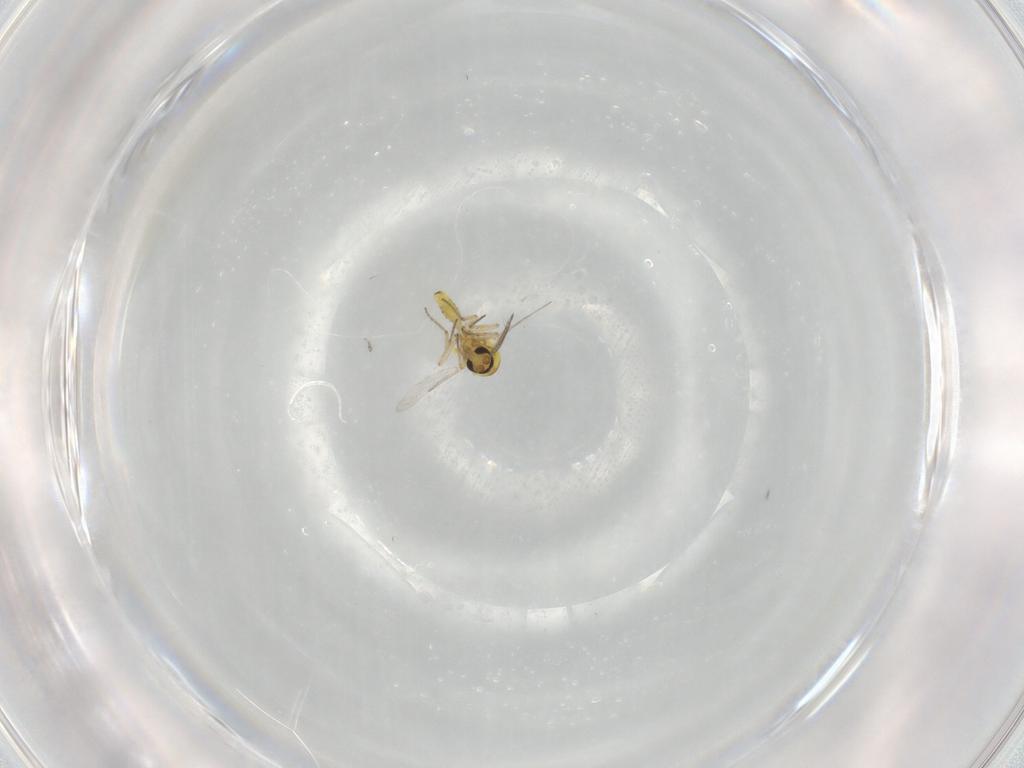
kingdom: Animalia
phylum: Arthropoda
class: Insecta
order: Diptera
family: Ceratopogonidae
